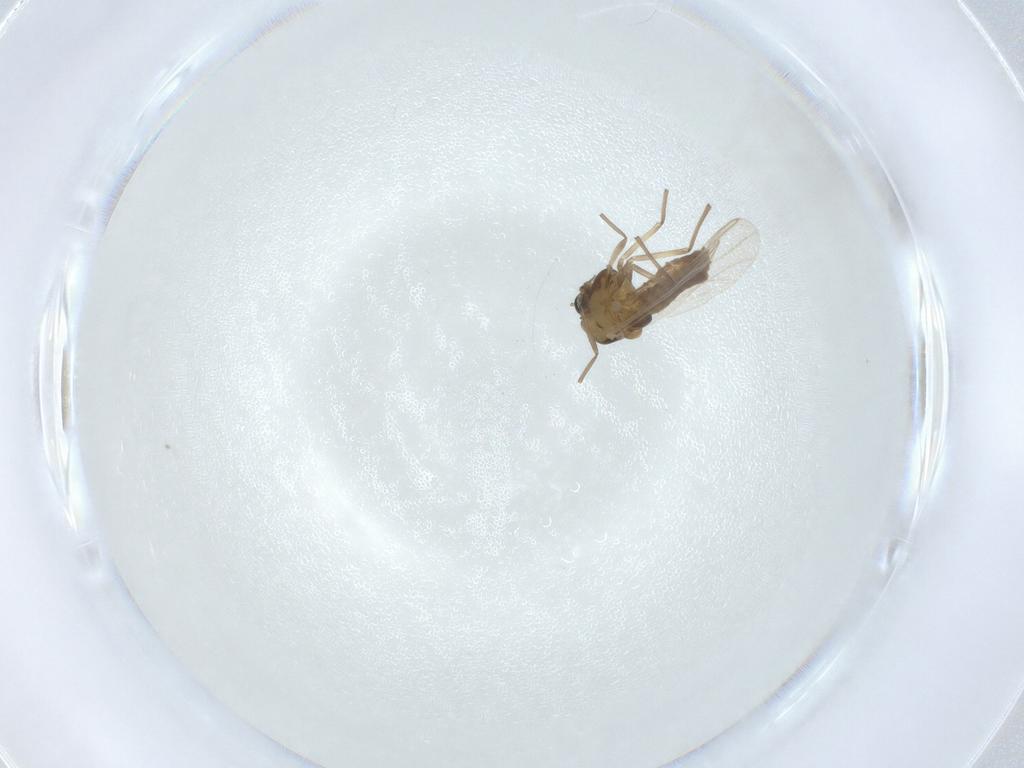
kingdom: Animalia
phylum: Arthropoda
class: Insecta
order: Diptera
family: Chironomidae
